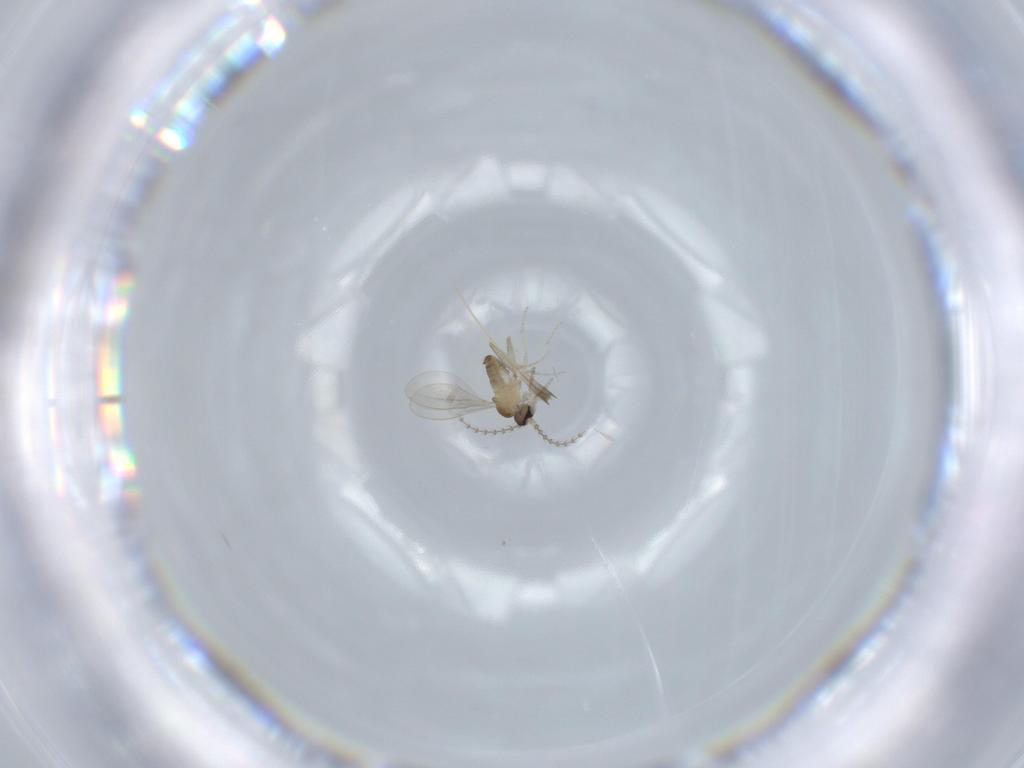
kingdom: Animalia
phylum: Arthropoda
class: Insecta
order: Diptera
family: Cecidomyiidae
